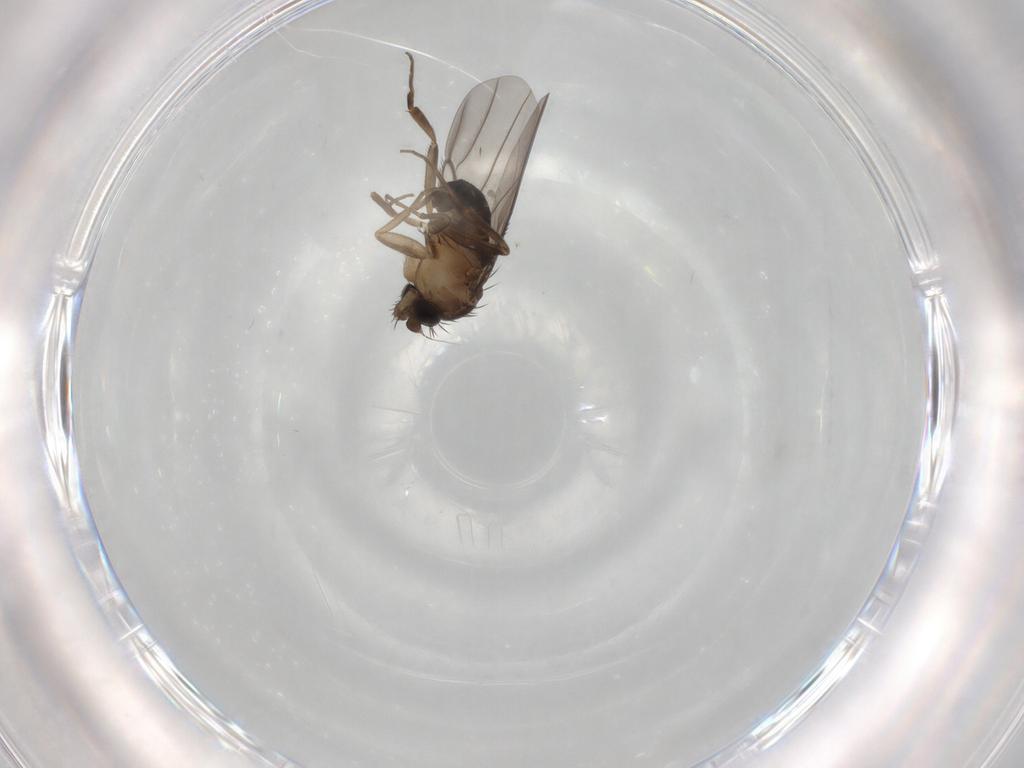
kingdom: Animalia
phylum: Arthropoda
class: Insecta
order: Diptera
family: Phoridae
